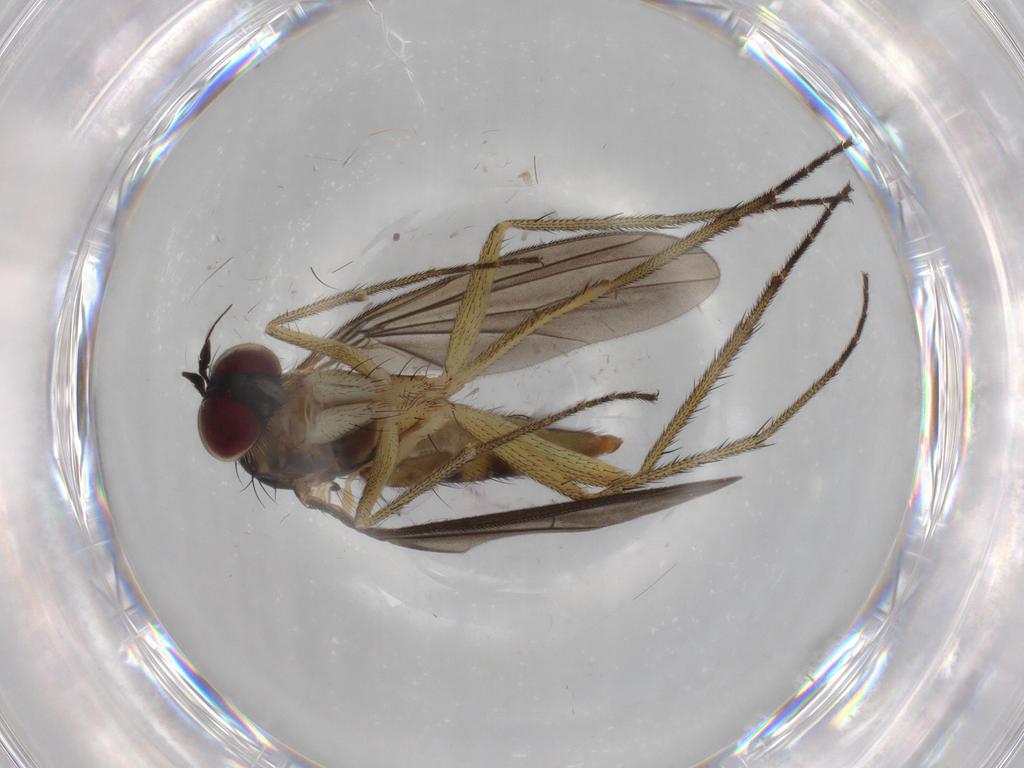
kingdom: Animalia
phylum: Arthropoda
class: Insecta
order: Diptera
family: Dolichopodidae
